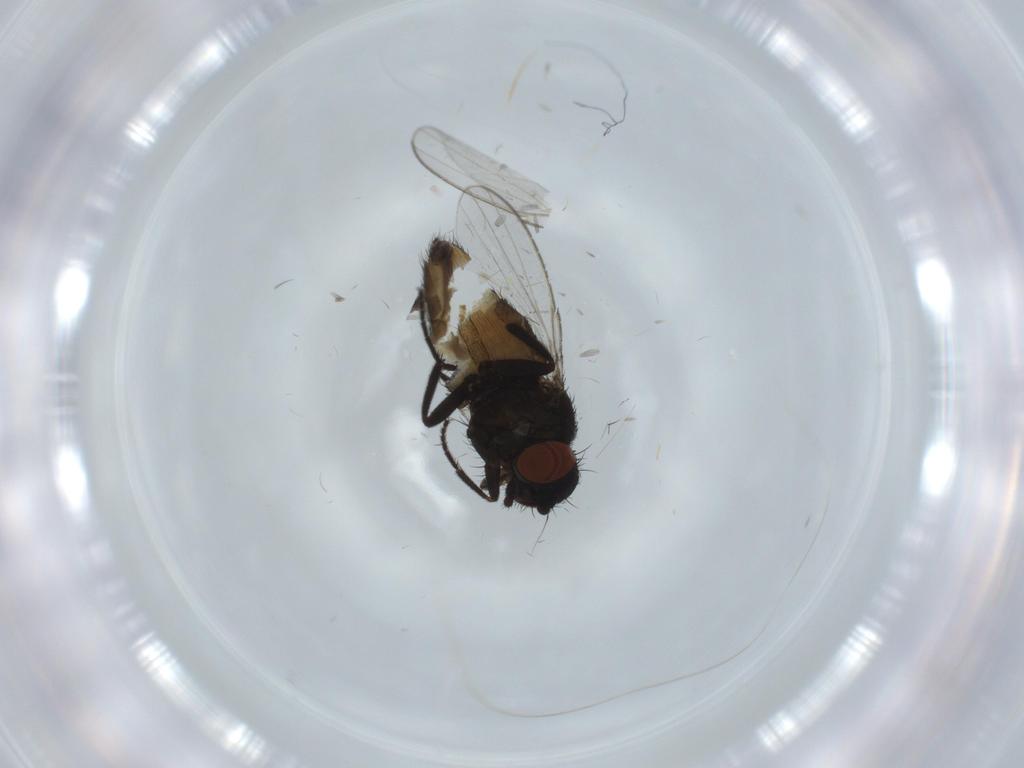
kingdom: Animalia
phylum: Arthropoda
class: Insecta
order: Diptera
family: Milichiidae
